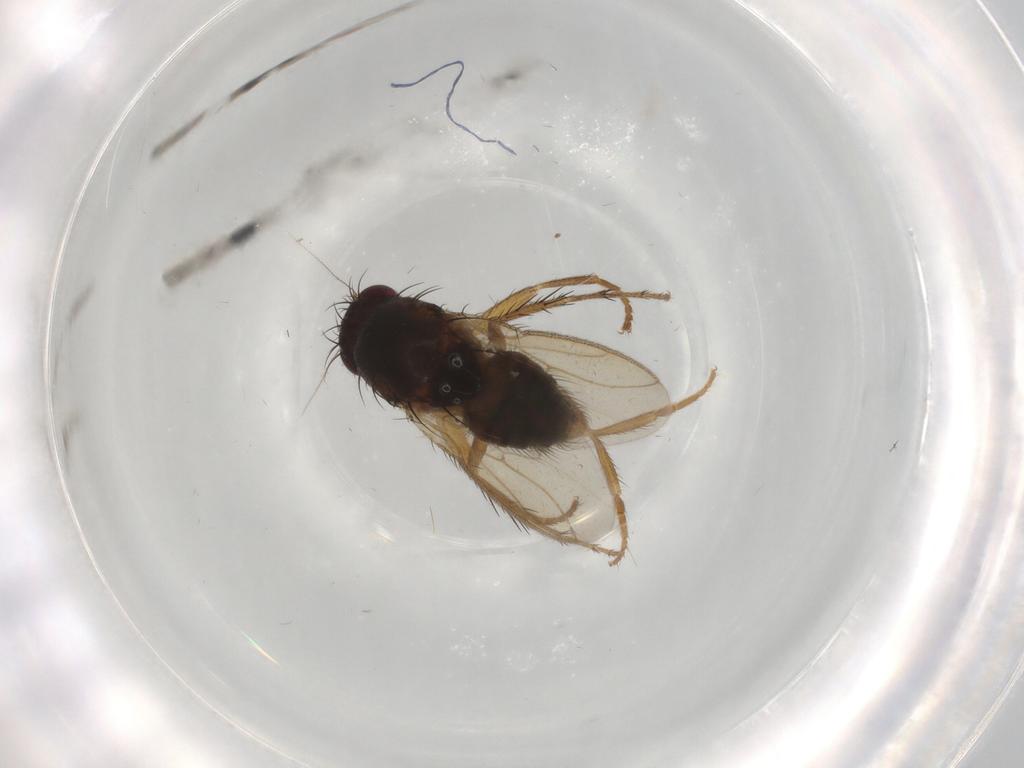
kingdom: Animalia
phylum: Arthropoda
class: Insecta
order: Diptera
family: Sphaeroceridae
